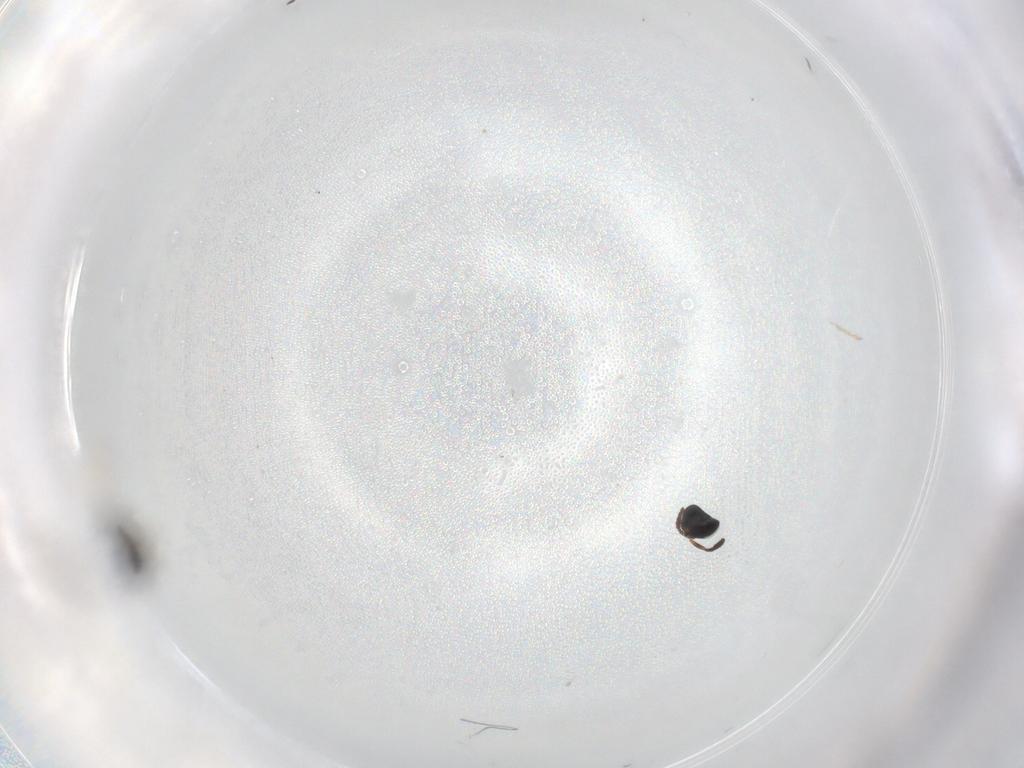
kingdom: Animalia
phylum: Arthropoda
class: Insecta
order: Hymenoptera
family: Scelionidae
